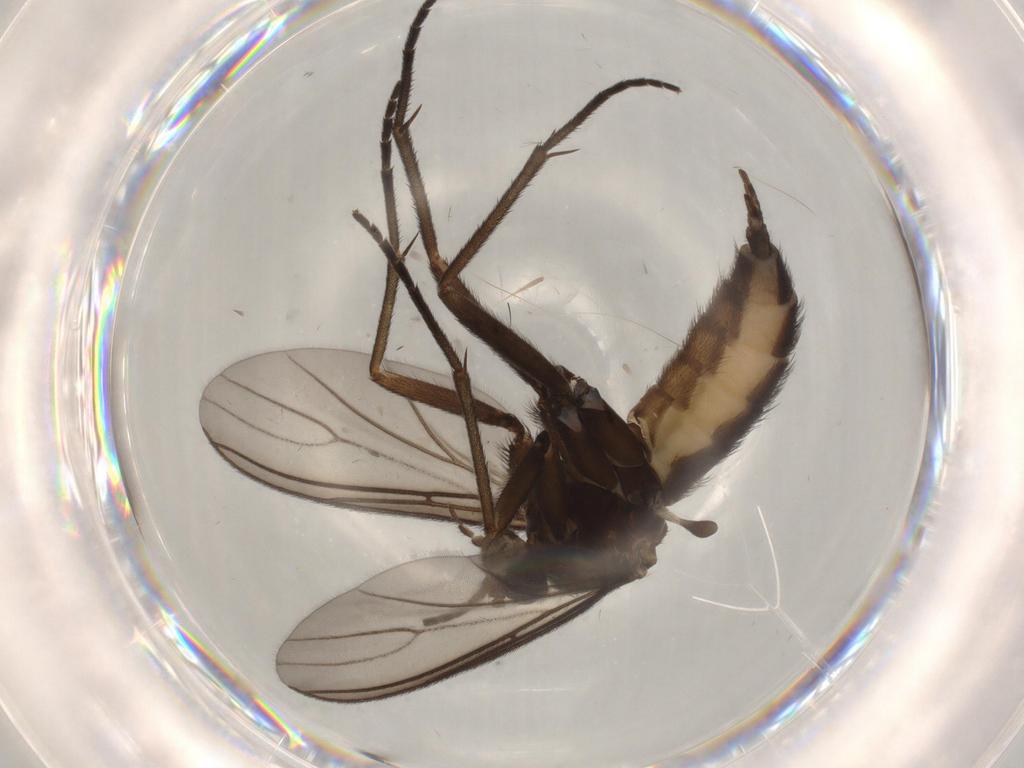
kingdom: Animalia
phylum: Arthropoda
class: Insecta
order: Diptera
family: Sciaridae
